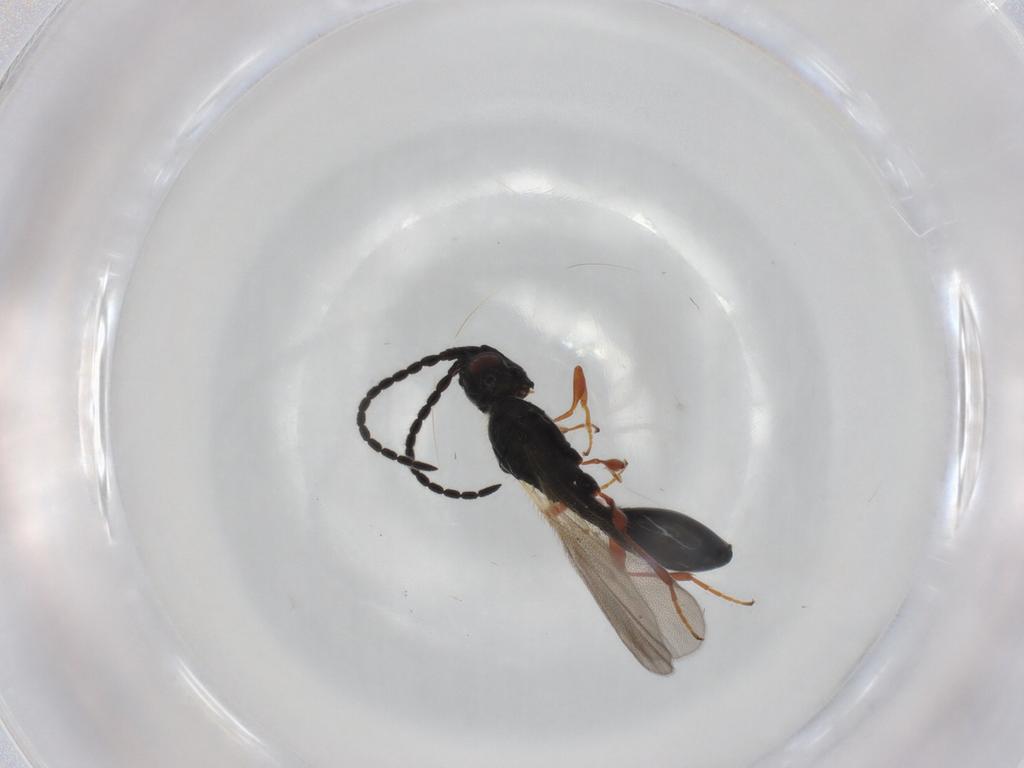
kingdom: Animalia
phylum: Arthropoda
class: Insecta
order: Hymenoptera
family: Diapriidae
